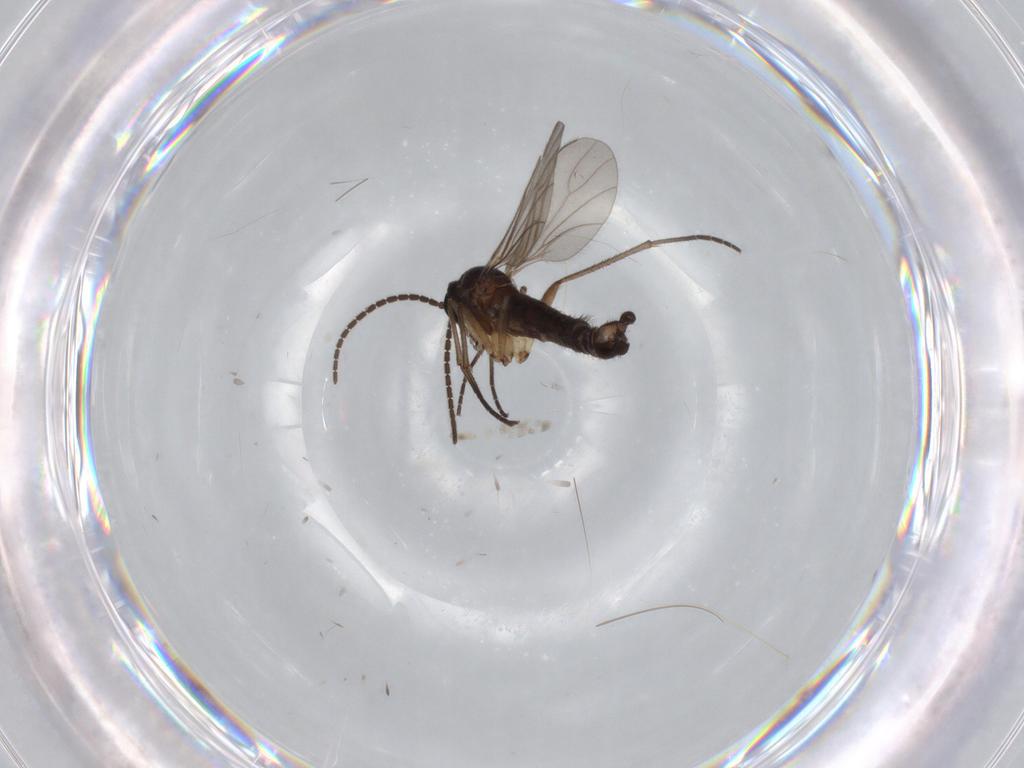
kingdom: Animalia
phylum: Arthropoda
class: Insecta
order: Diptera
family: Sciaridae
